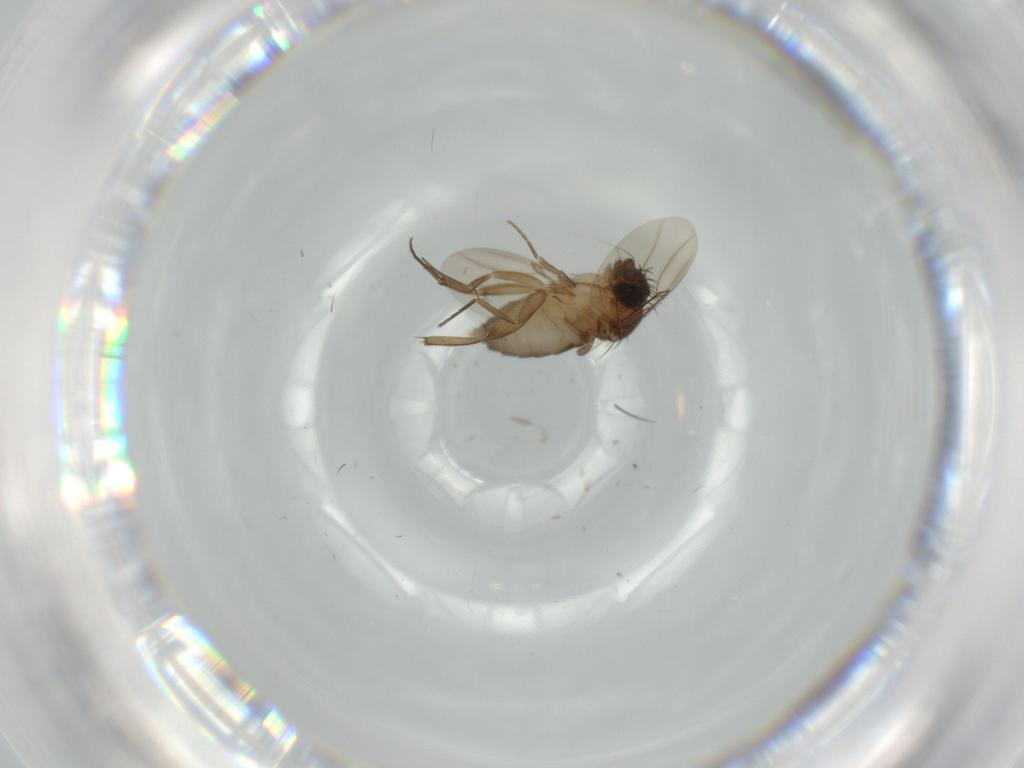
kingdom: Animalia
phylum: Arthropoda
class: Insecta
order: Diptera
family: Phoridae
